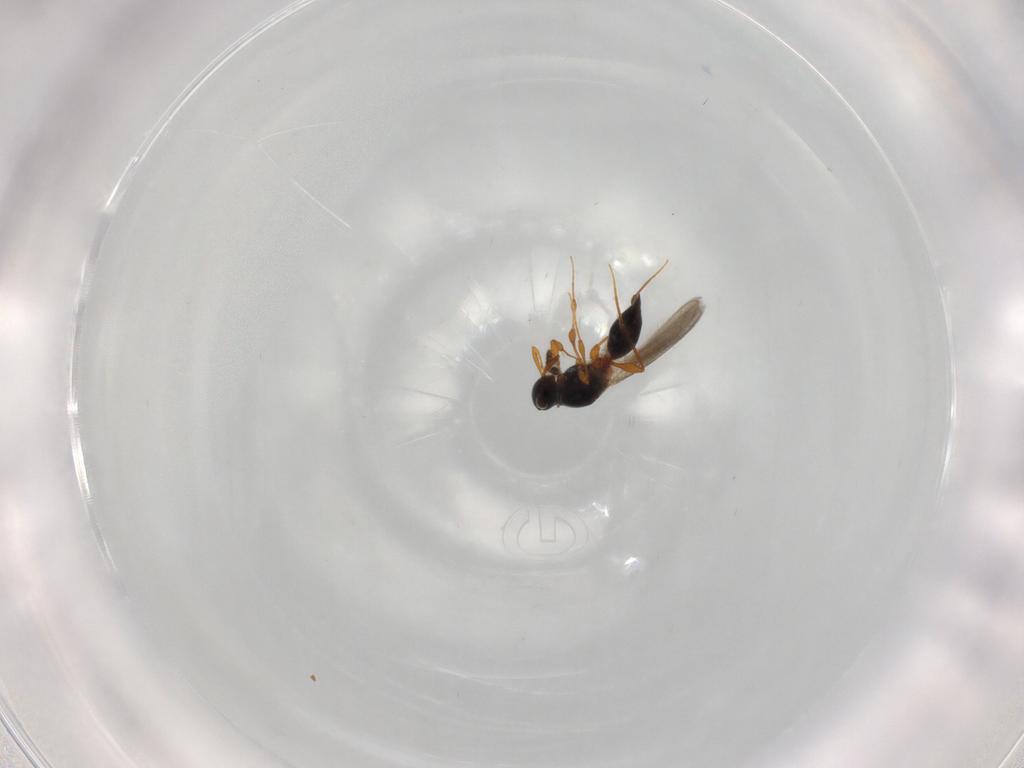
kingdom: Animalia
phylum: Arthropoda
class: Insecta
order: Hymenoptera
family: Platygastridae
